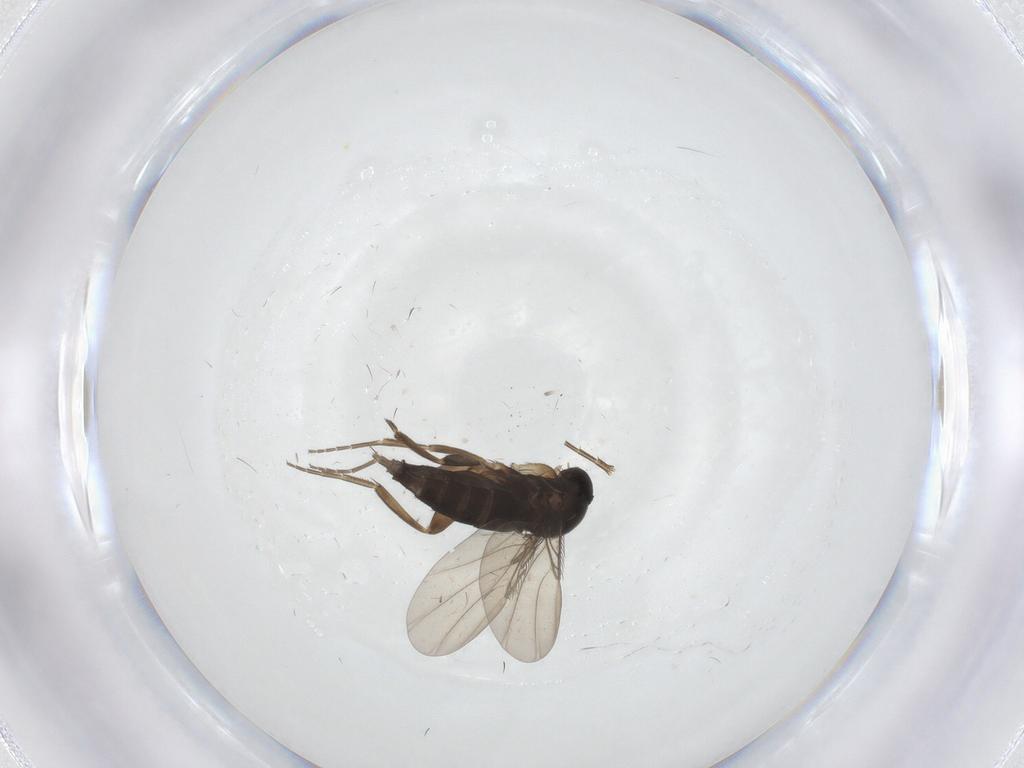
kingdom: Animalia
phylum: Arthropoda
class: Insecta
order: Diptera
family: Phoridae
